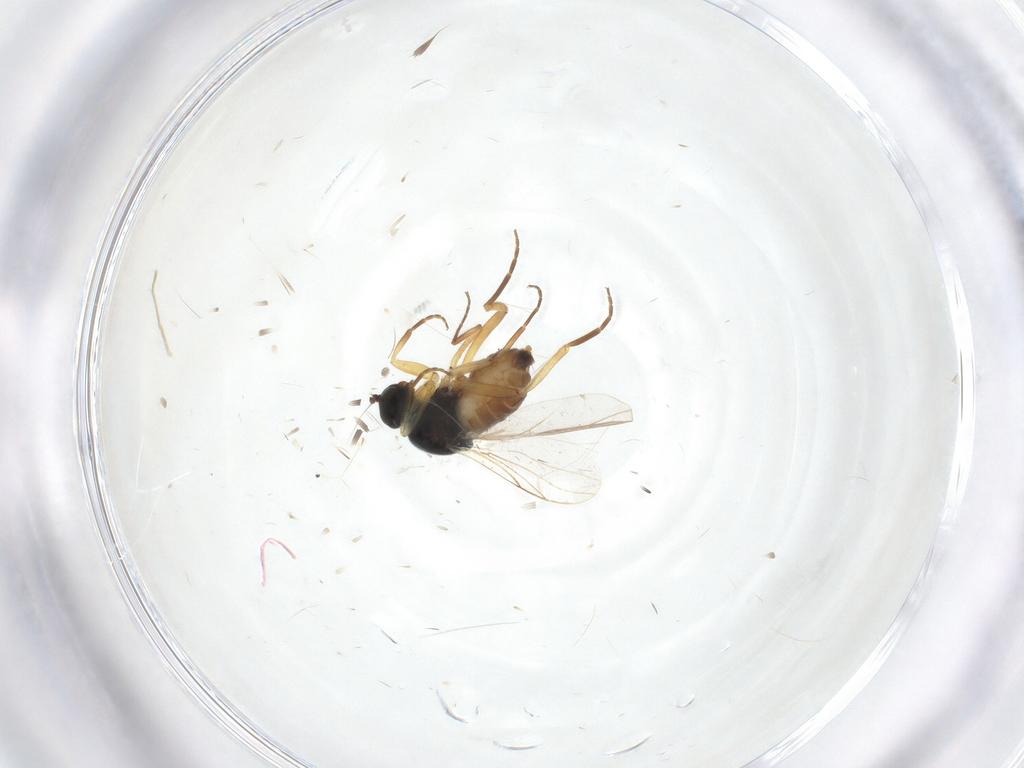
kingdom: Animalia
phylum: Arthropoda
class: Insecta
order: Diptera
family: Hybotidae
